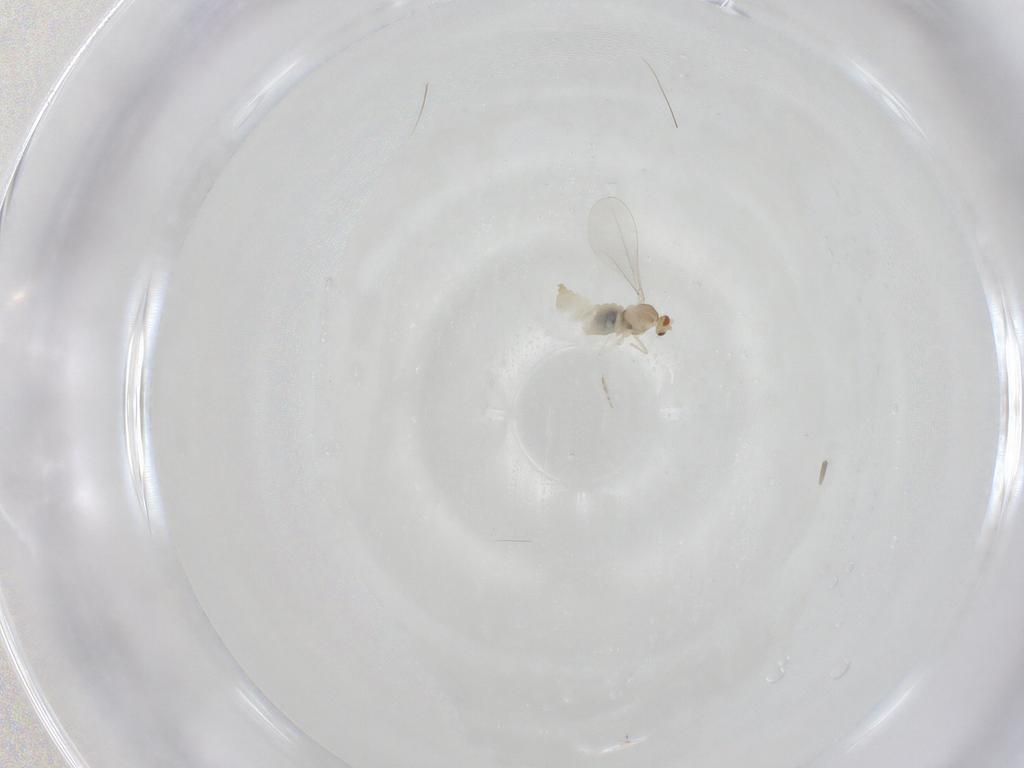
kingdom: Animalia
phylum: Arthropoda
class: Insecta
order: Diptera
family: Cecidomyiidae
